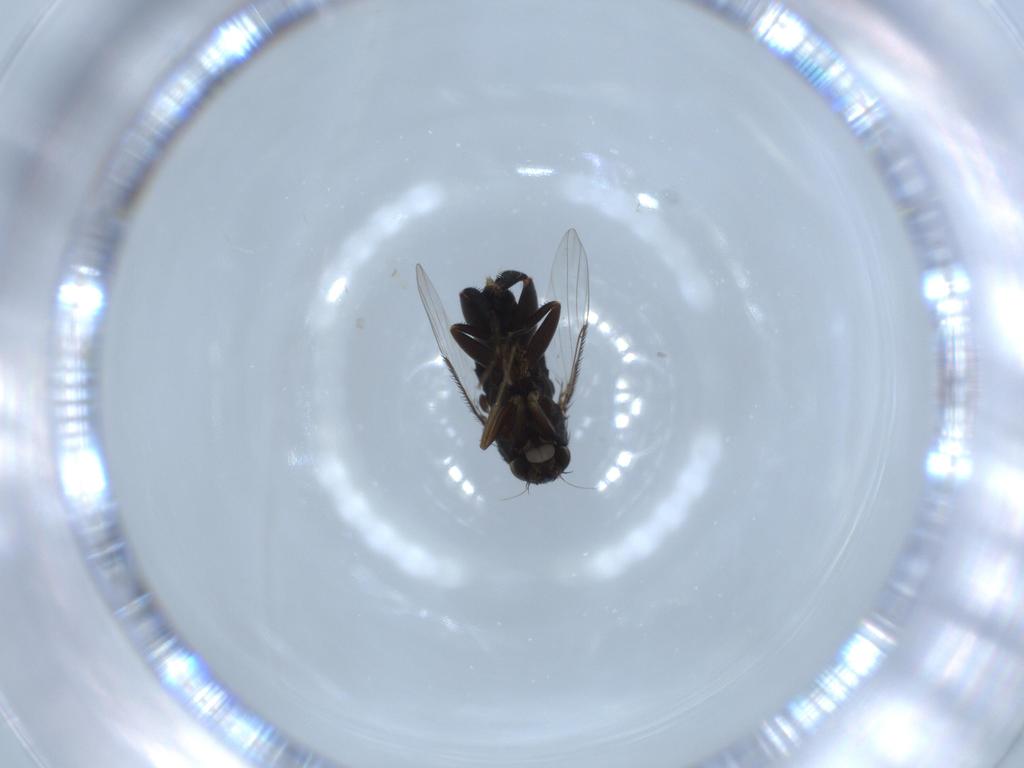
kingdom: Animalia
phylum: Arthropoda
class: Insecta
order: Diptera
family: Phoridae
